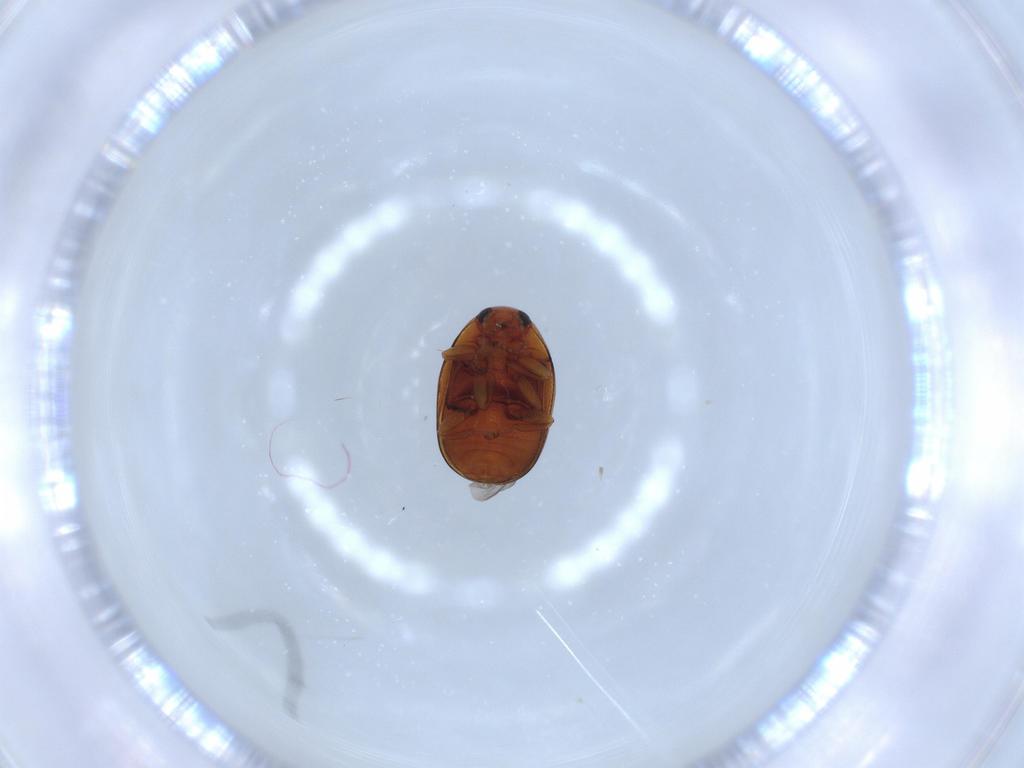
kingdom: Animalia
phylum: Arthropoda
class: Insecta
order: Coleoptera
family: Chrysomelidae
